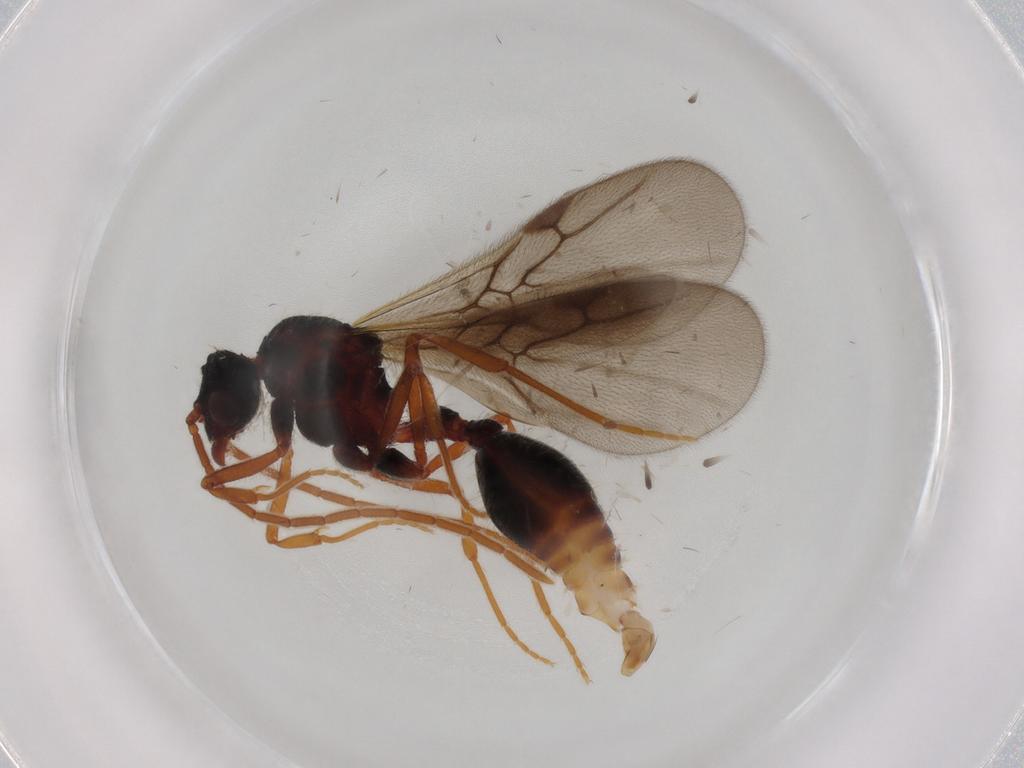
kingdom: Animalia
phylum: Arthropoda
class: Insecta
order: Hymenoptera
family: Formicidae
